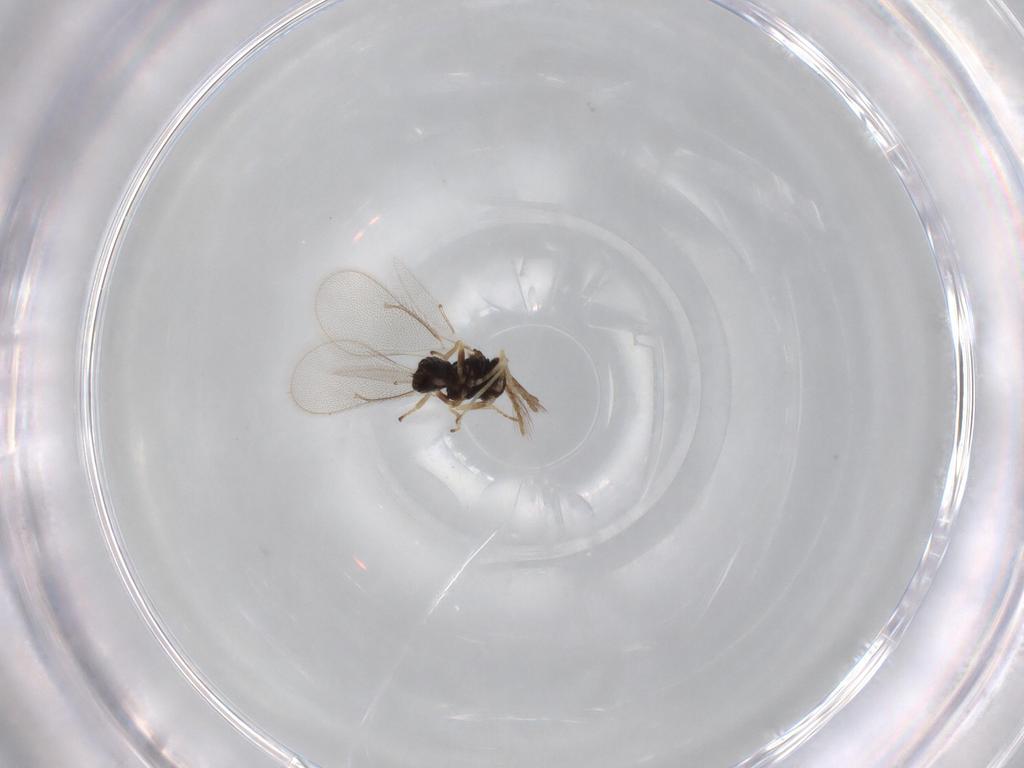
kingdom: Animalia
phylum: Arthropoda
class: Insecta
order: Hymenoptera
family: Eulophidae
